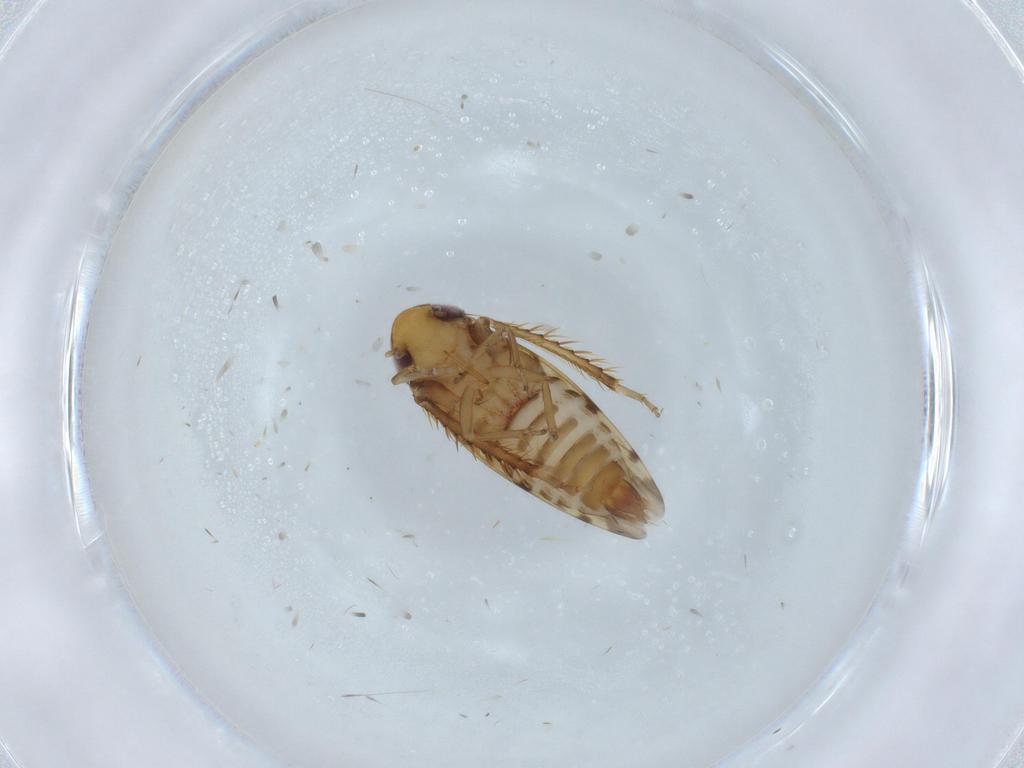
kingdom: Animalia
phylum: Arthropoda
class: Insecta
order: Hemiptera
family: Cicadellidae
